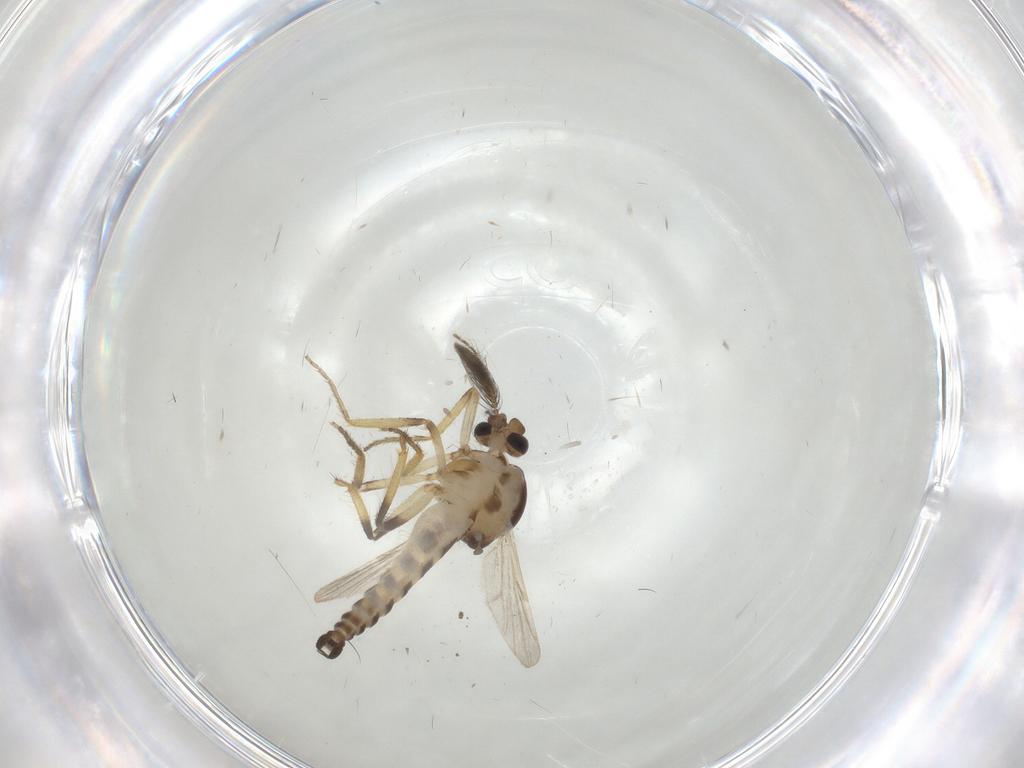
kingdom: Animalia
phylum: Arthropoda
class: Insecta
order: Diptera
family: Ceratopogonidae
